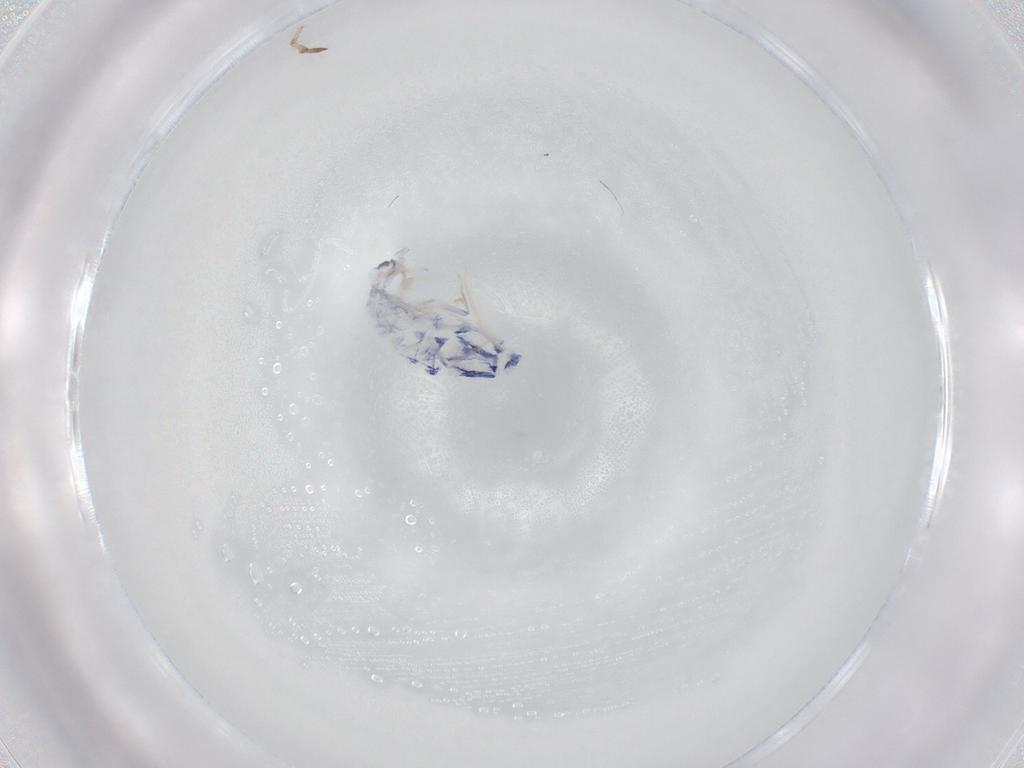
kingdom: Animalia
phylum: Arthropoda
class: Collembola
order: Entomobryomorpha
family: Entomobryidae
